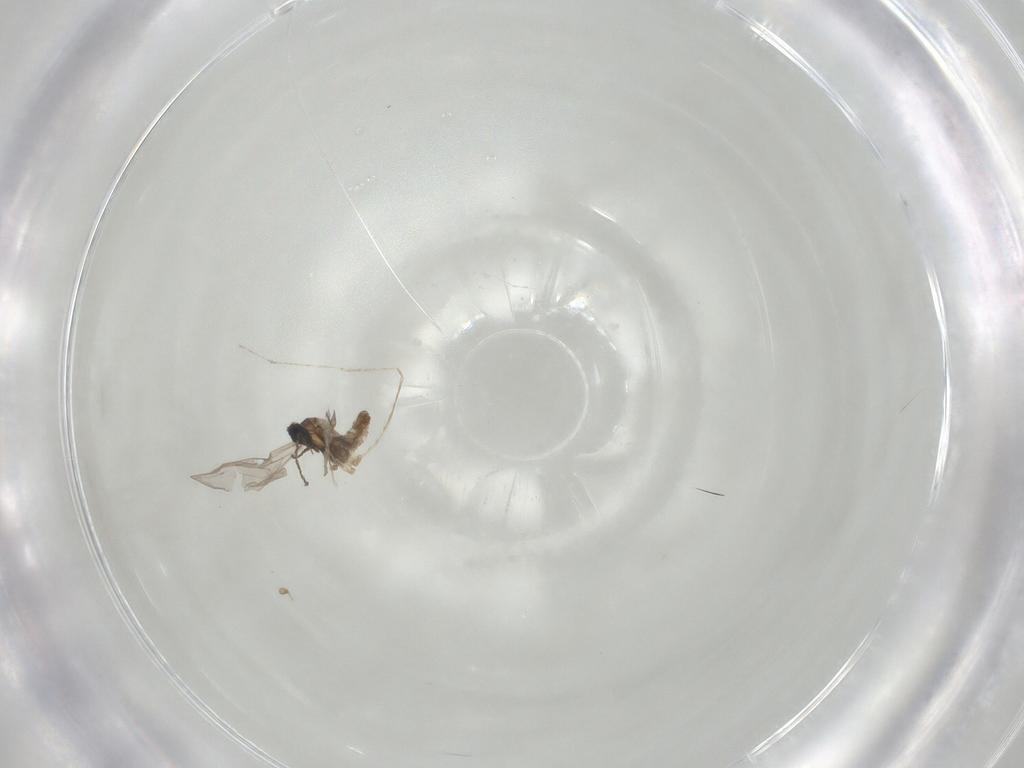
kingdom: Animalia
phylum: Arthropoda
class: Insecta
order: Diptera
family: Cecidomyiidae
